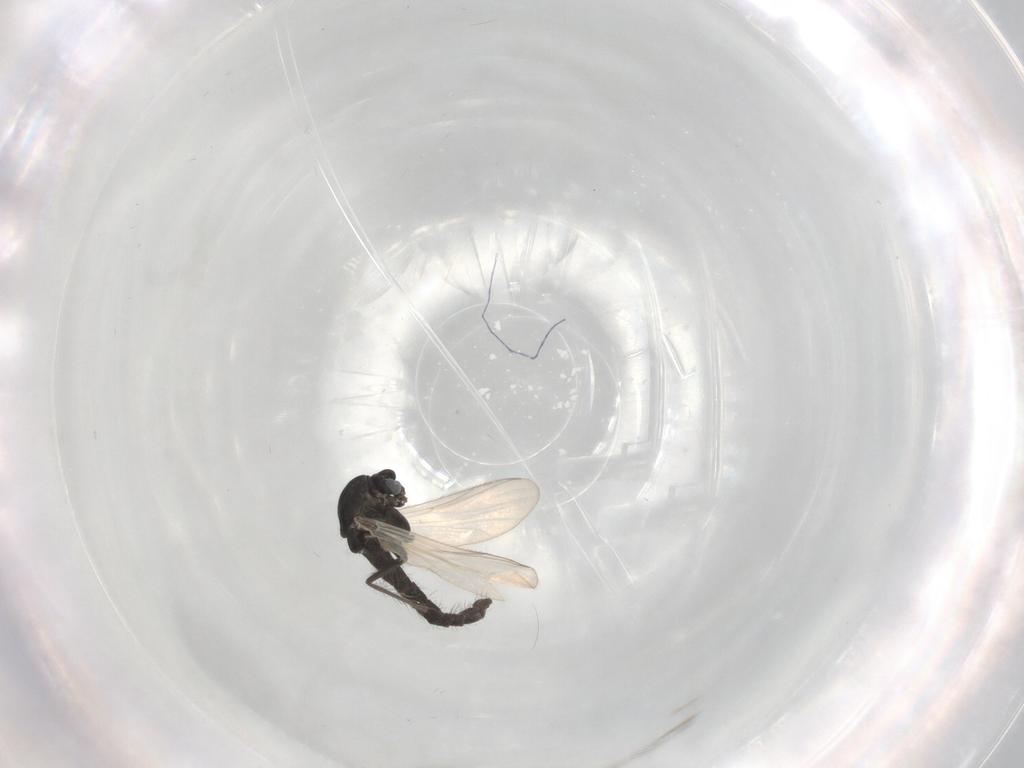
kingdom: Animalia
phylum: Arthropoda
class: Insecta
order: Diptera
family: Chironomidae
